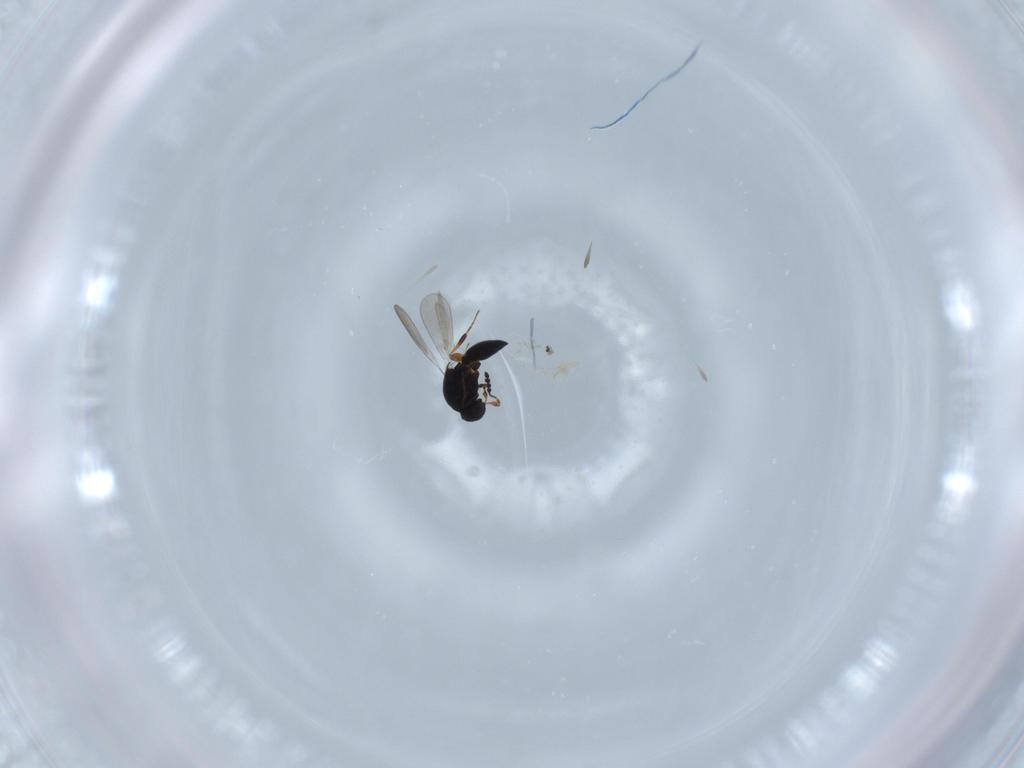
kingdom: Animalia
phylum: Arthropoda
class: Insecta
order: Hymenoptera
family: Platygastridae
